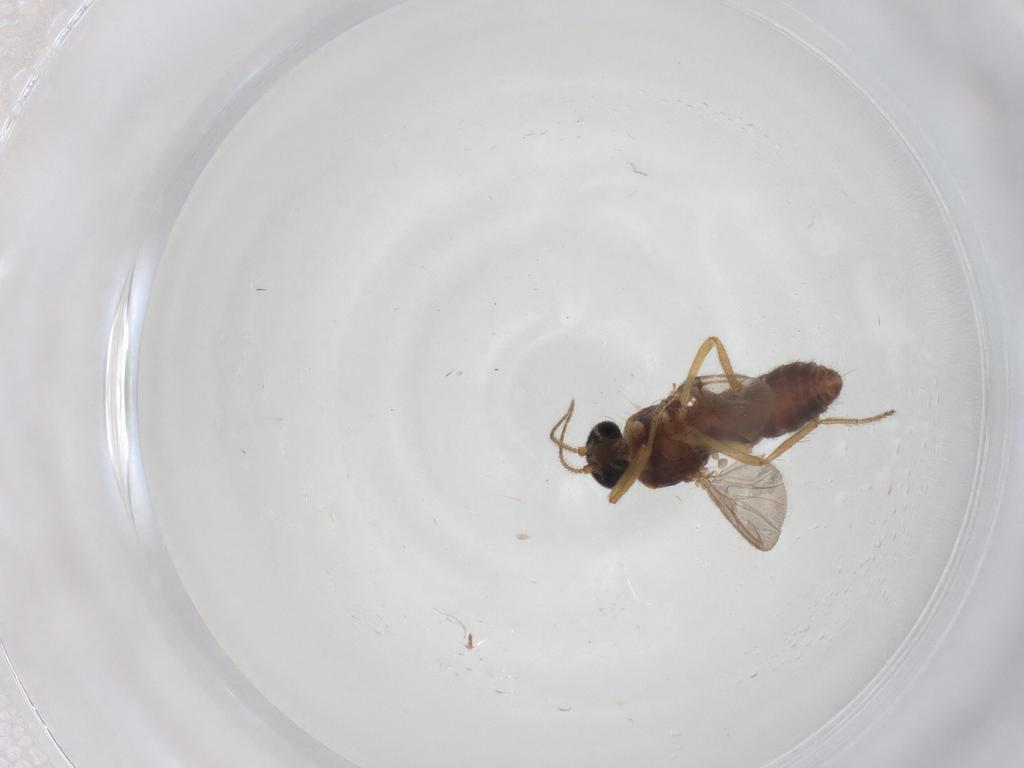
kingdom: Animalia
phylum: Arthropoda
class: Insecta
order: Diptera
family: Ceratopogonidae
